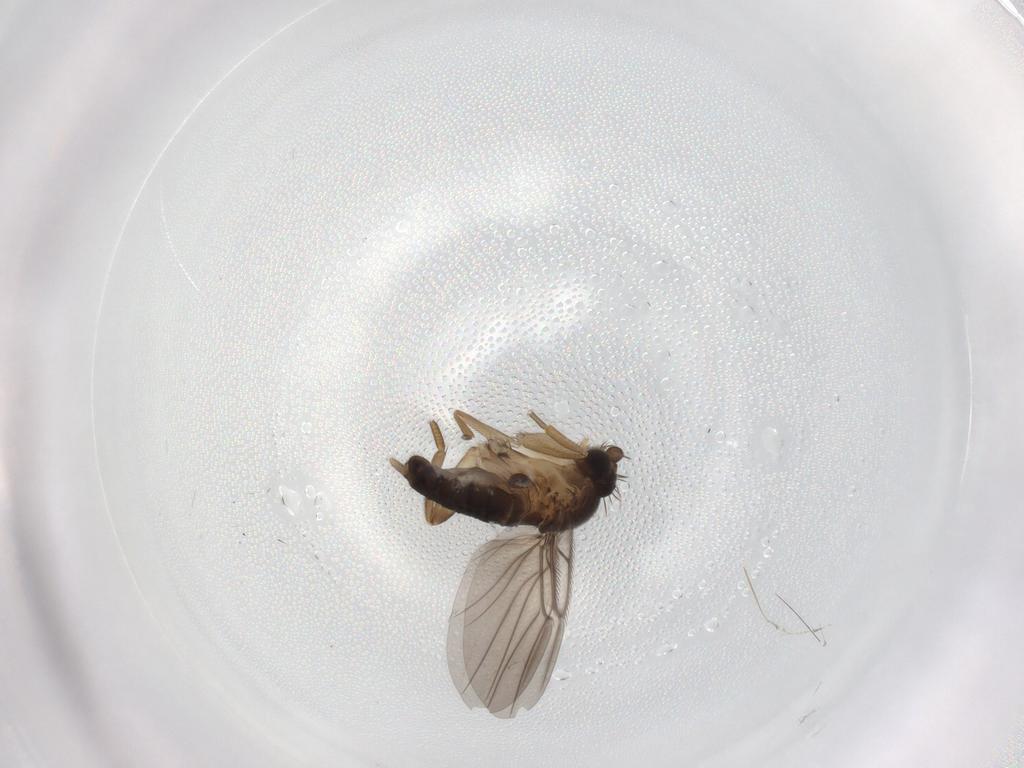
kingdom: Animalia
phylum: Arthropoda
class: Insecta
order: Diptera
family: Phoridae
